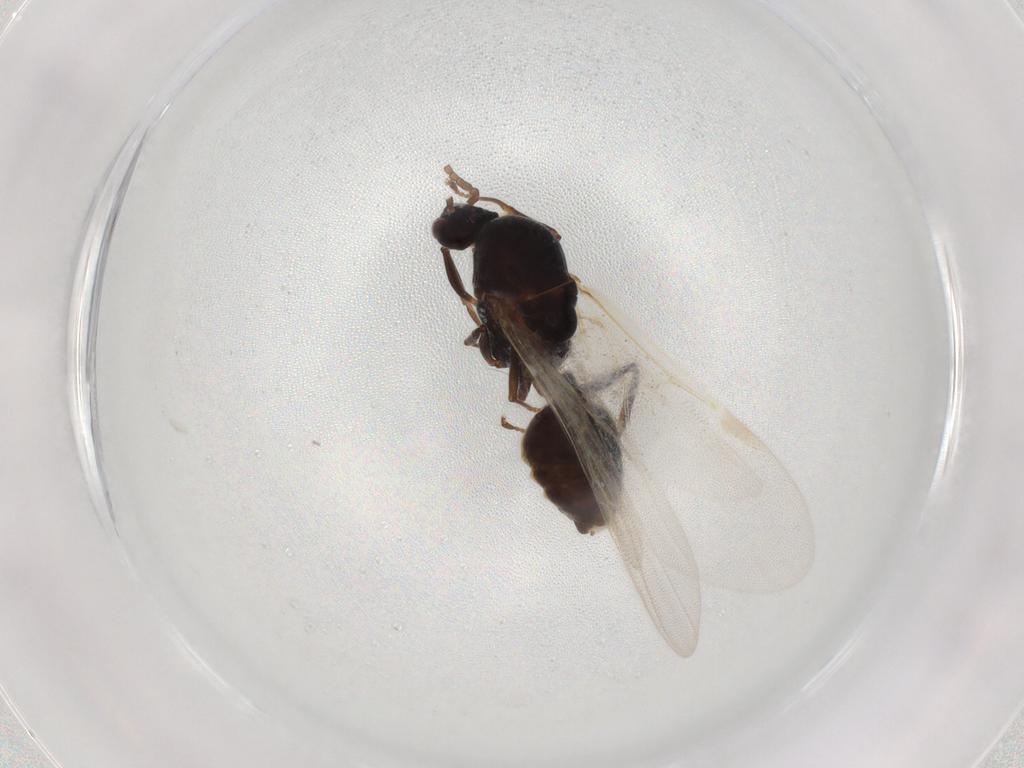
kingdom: Animalia
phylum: Arthropoda
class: Insecta
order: Hymenoptera
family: Formicidae
